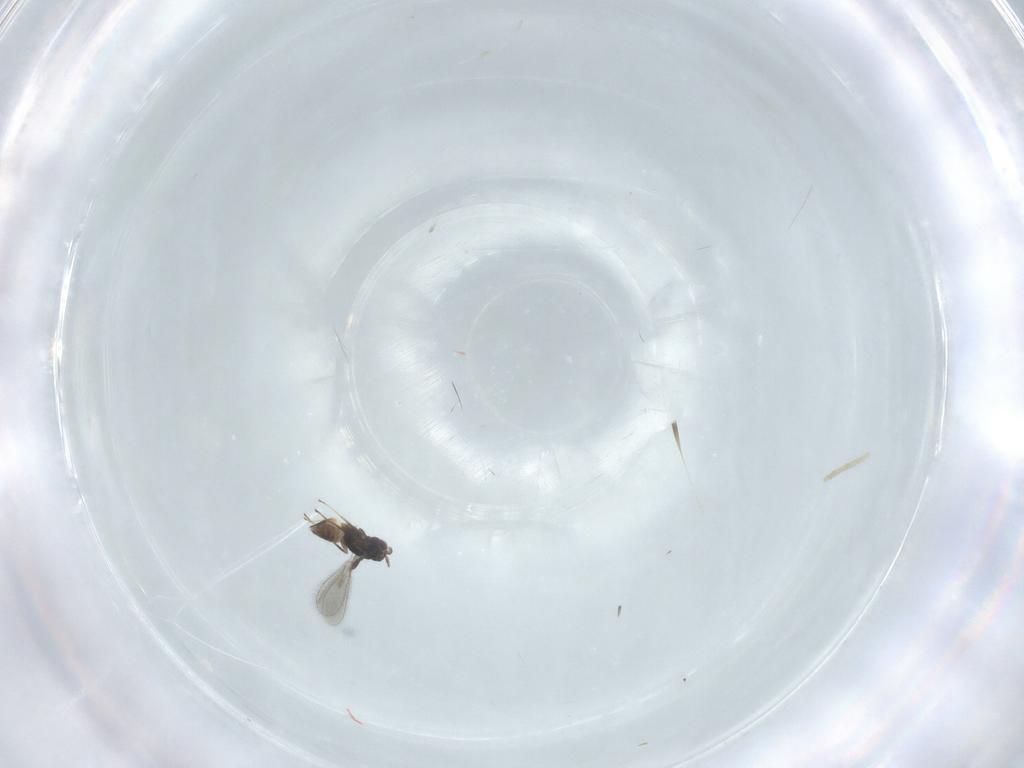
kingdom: Animalia
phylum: Arthropoda
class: Insecta
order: Hymenoptera
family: Mymaridae
